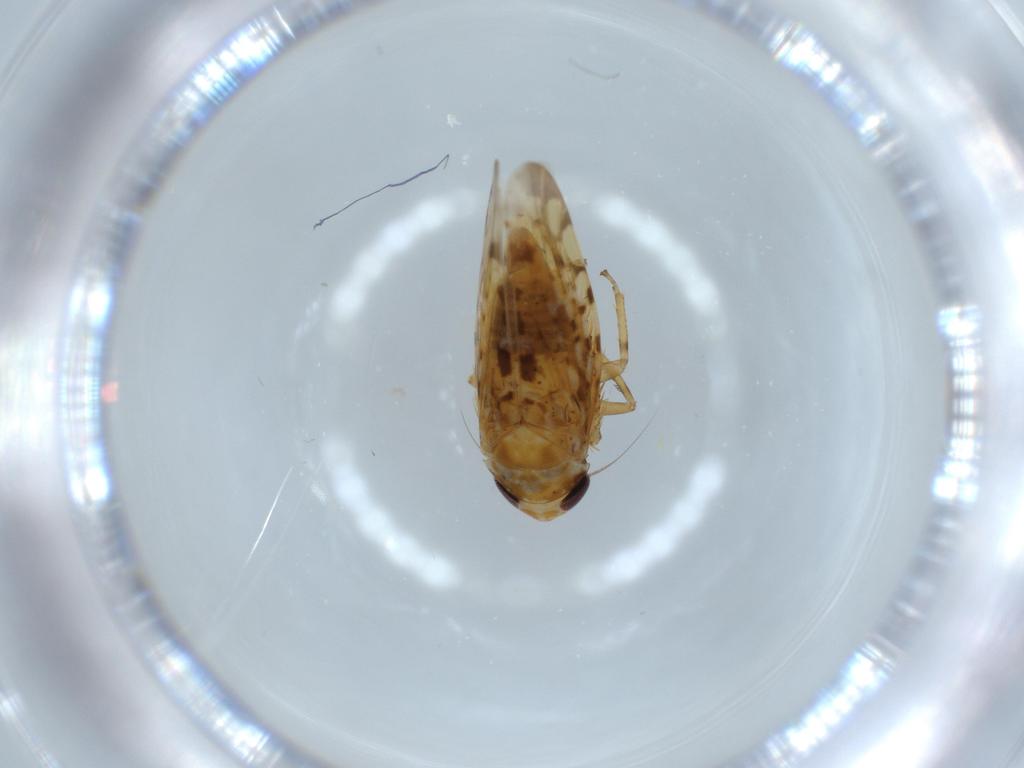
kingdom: Animalia
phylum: Arthropoda
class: Insecta
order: Hemiptera
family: Cicadellidae
